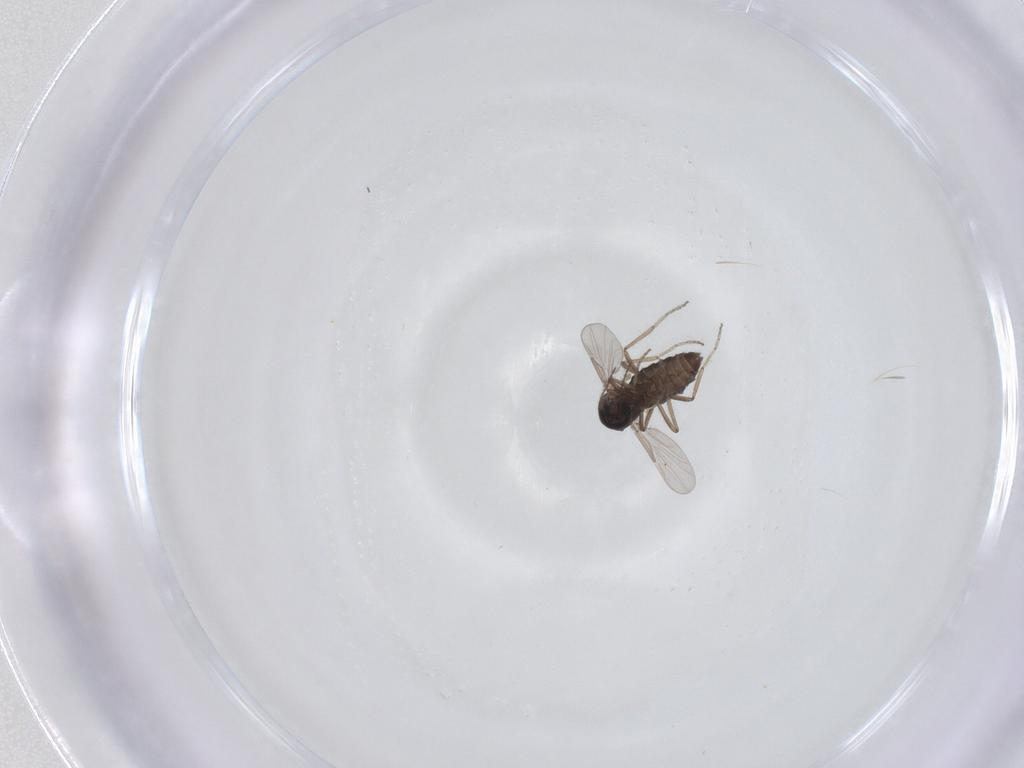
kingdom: Animalia
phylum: Arthropoda
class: Insecta
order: Diptera
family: Ceratopogonidae
